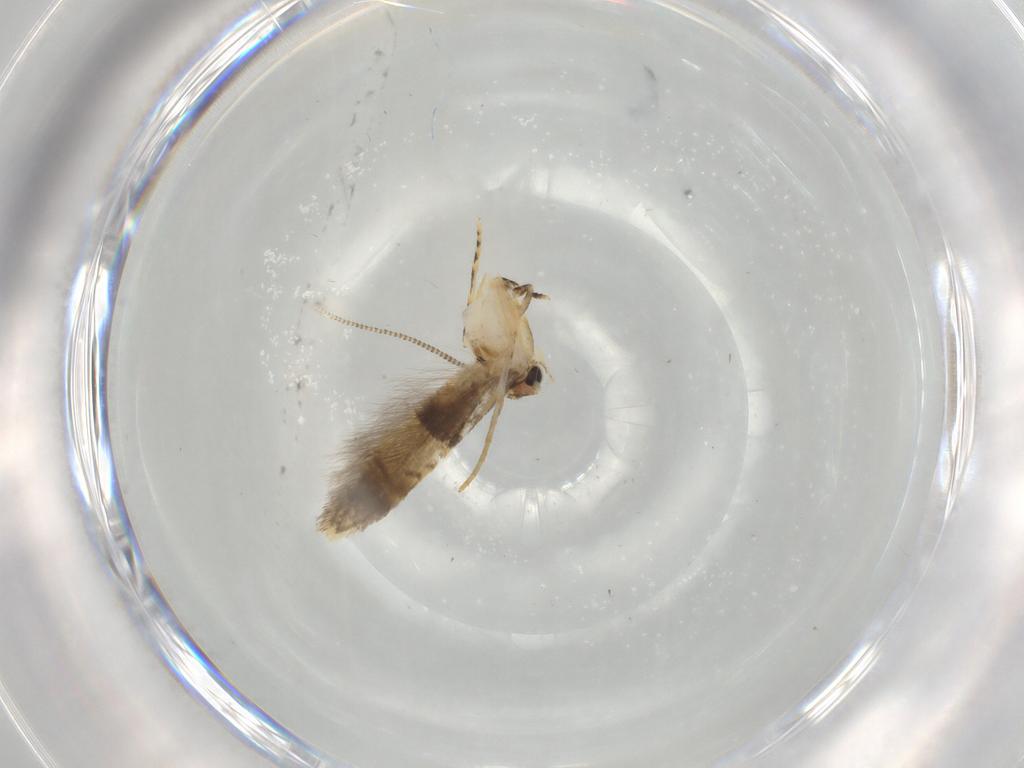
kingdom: Animalia
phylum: Arthropoda
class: Insecta
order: Lepidoptera
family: Tineidae
